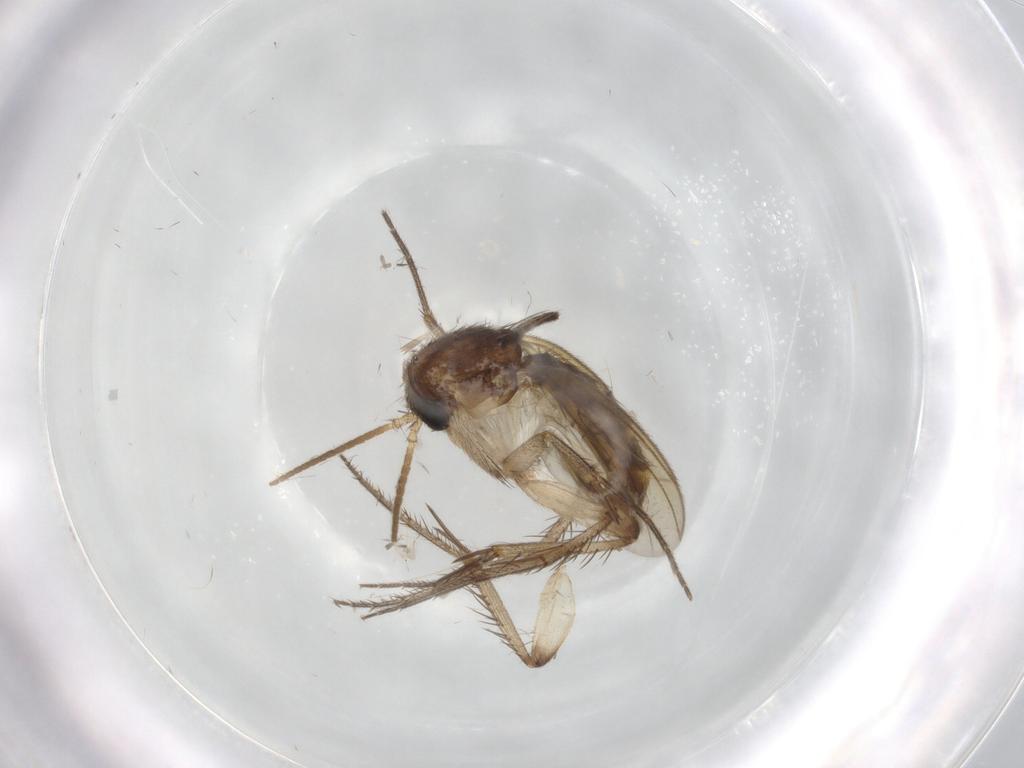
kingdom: Animalia
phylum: Arthropoda
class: Insecta
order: Diptera
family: Mycetophilidae
